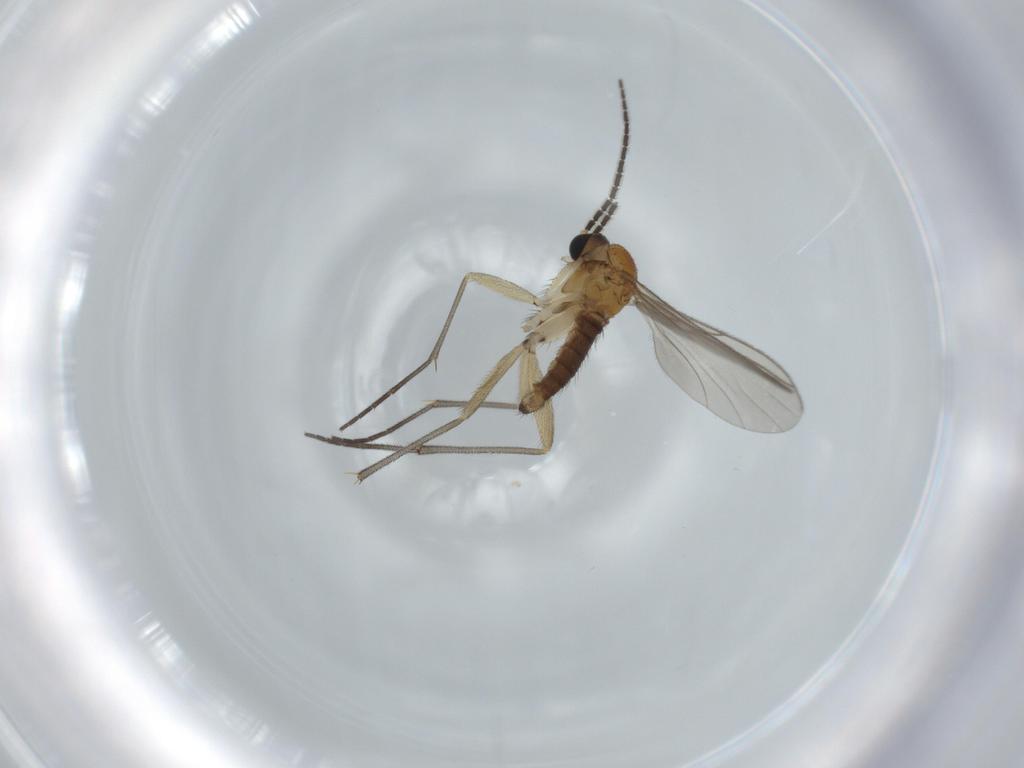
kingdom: Animalia
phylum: Arthropoda
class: Insecta
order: Diptera
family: Sciaridae
